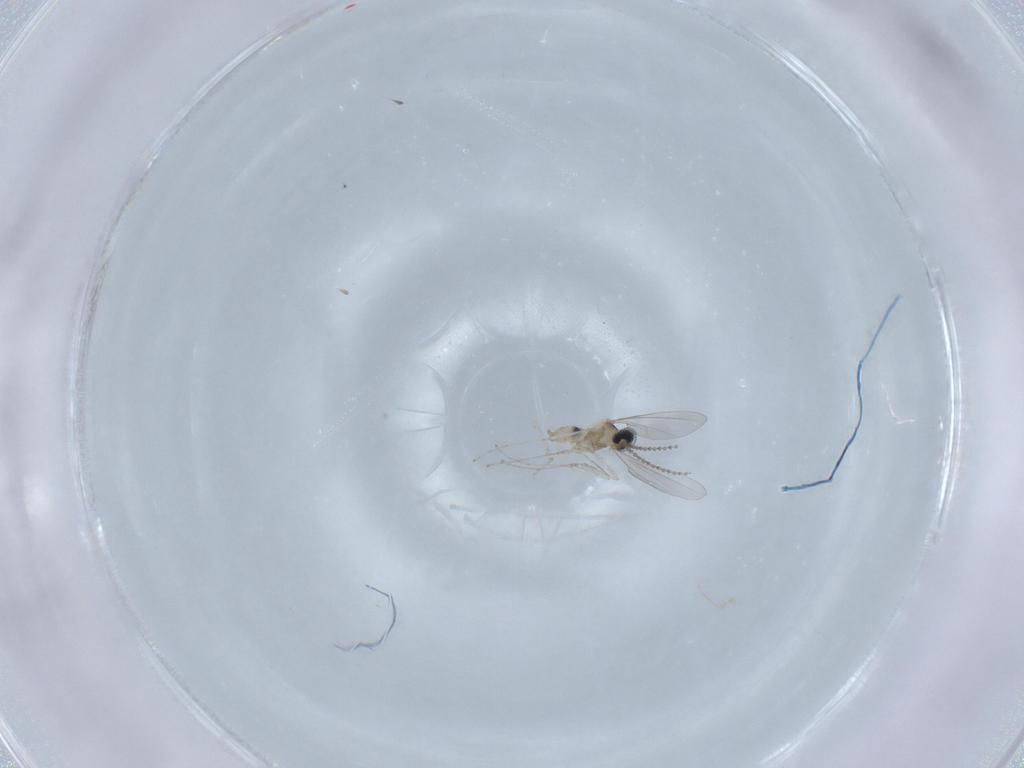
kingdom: Animalia
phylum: Arthropoda
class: Insecta
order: Diptera
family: Cecidomyiidae
